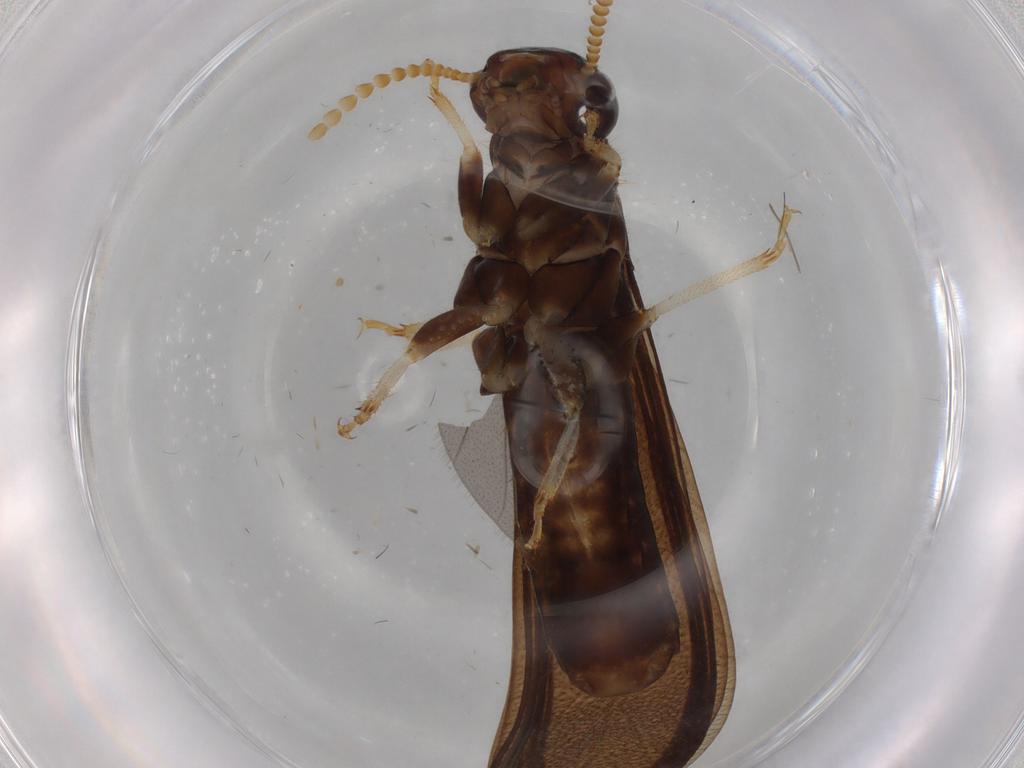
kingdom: Animalia
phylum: Arthropoda
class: Insecta
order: Blattodea
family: Kalotermitidae
